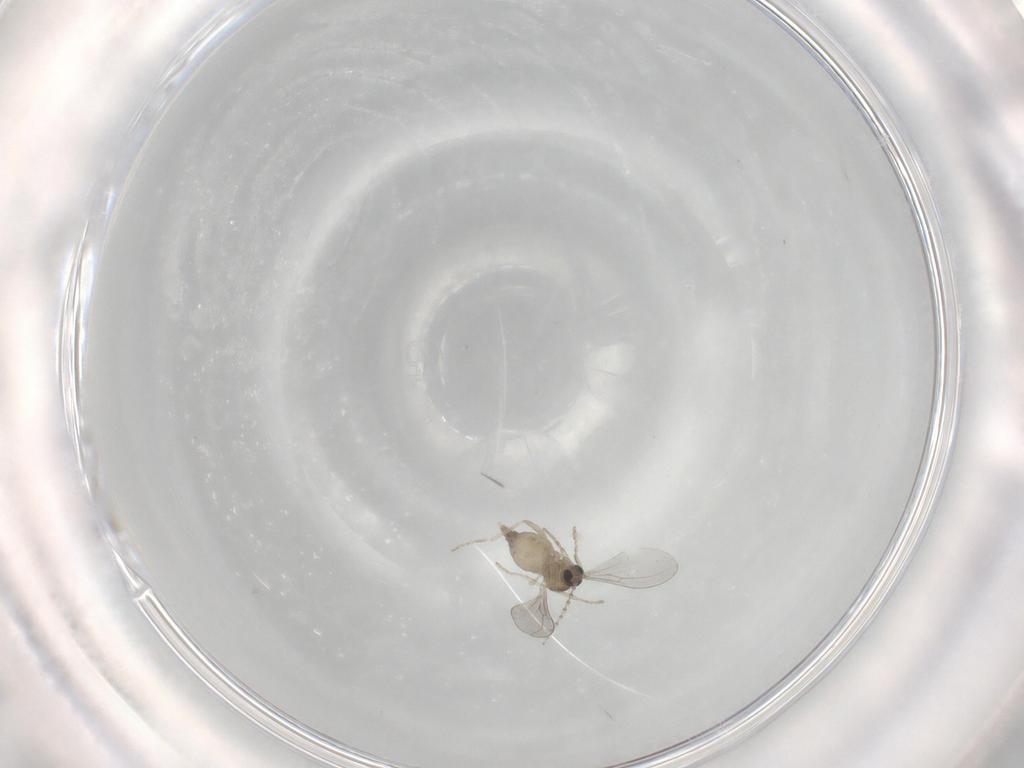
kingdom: Animalia
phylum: Arthropoda
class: Insecta
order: Diptera
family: Cecidomyiidae
